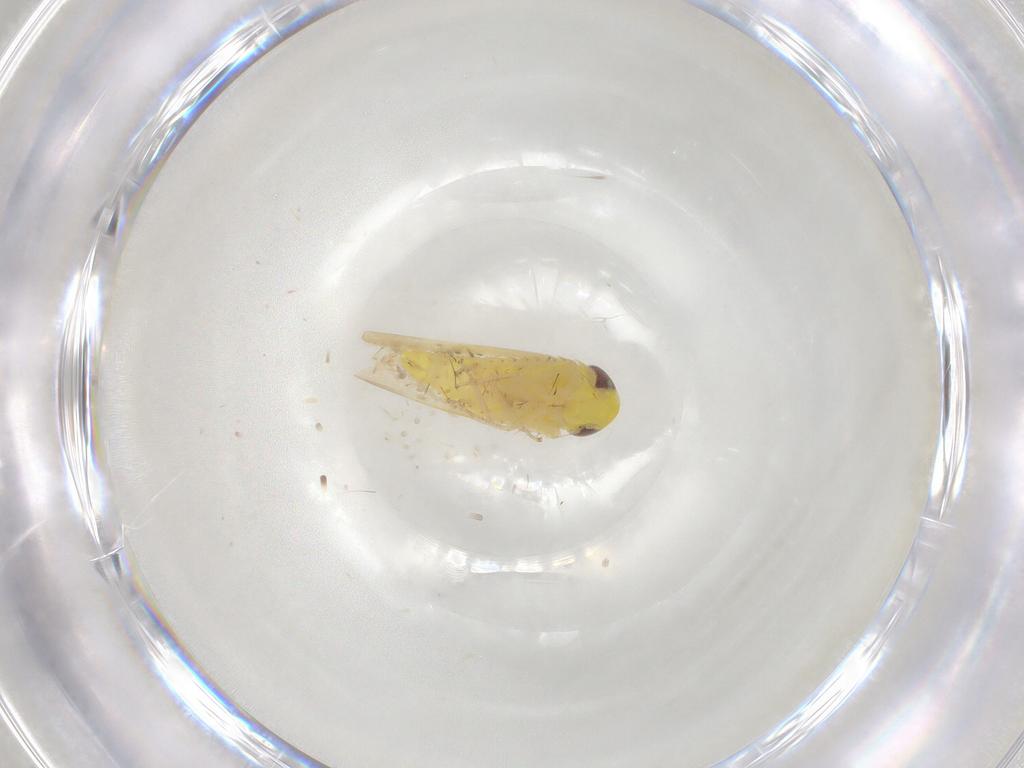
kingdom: Animalia
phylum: Arthropoda
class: Insecta
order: Hemiptera
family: Cicadellidae
